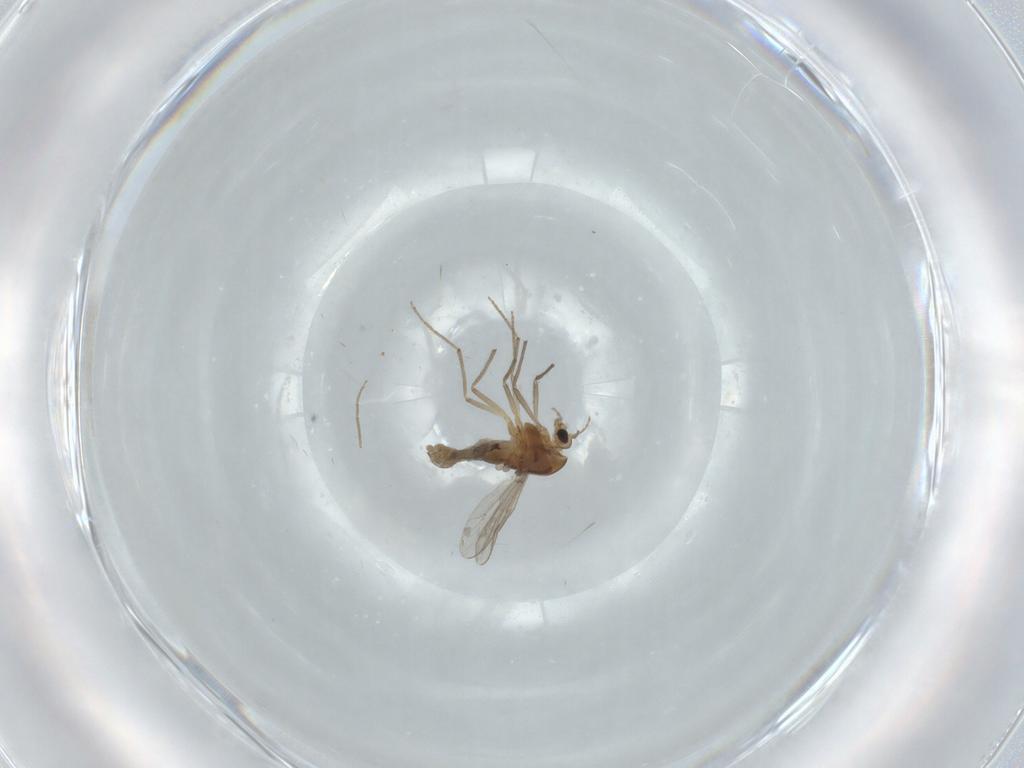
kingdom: Animalia
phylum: Arthropoda
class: Insecta
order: Diptera
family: Chironomidae
